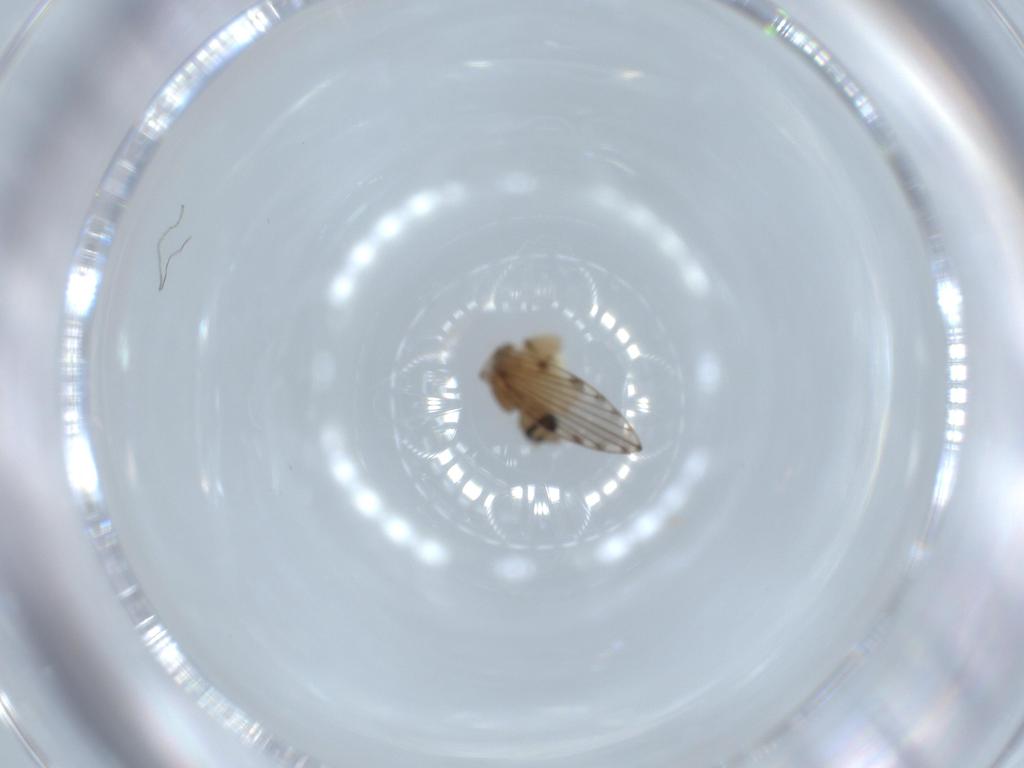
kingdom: Animalia
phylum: Arthropoda
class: Insecta
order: Diptera
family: Psychodidae
